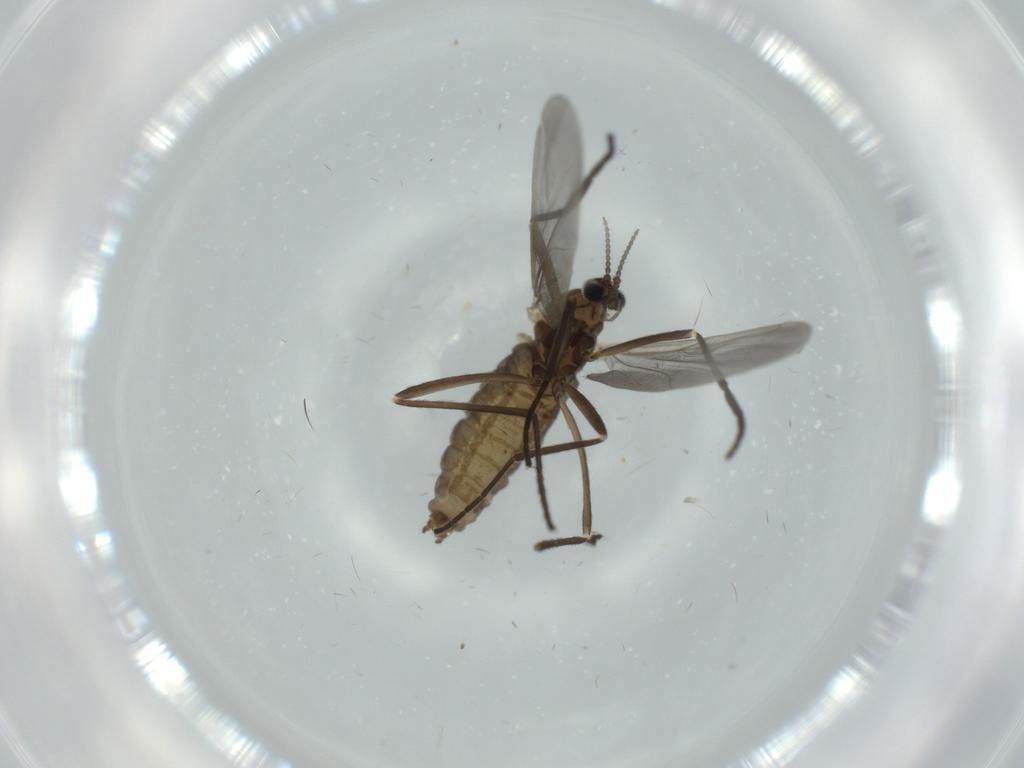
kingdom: Animalia
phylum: Arthropoda
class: Insecta
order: Diptera
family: Cecidomyiidae
